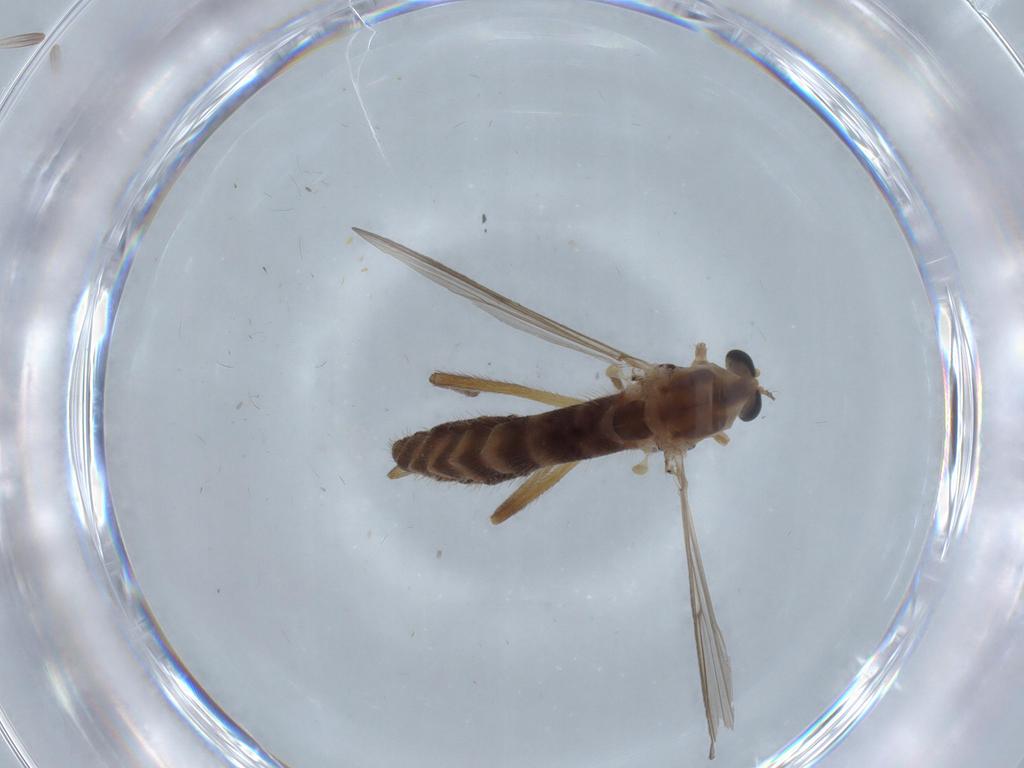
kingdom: Animalia
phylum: Arthropoda
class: Insecta
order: Diptera
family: Chironomidae
